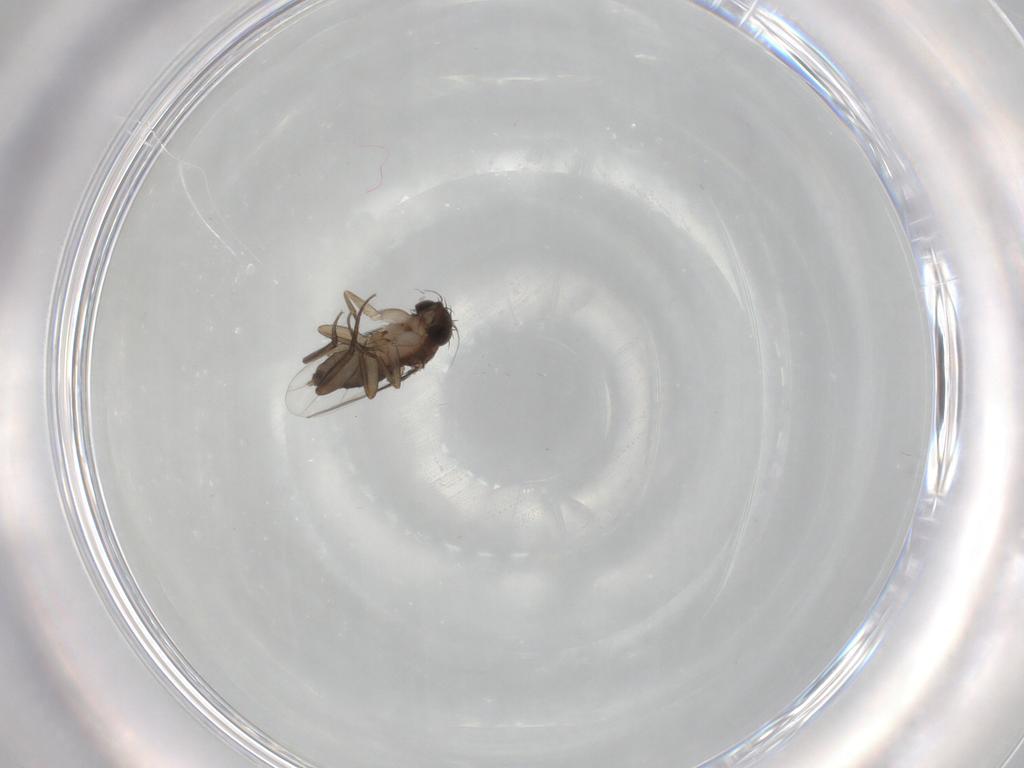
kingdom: Animalia
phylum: Arthropoda
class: Insecta
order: Diptera
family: Phoridae
